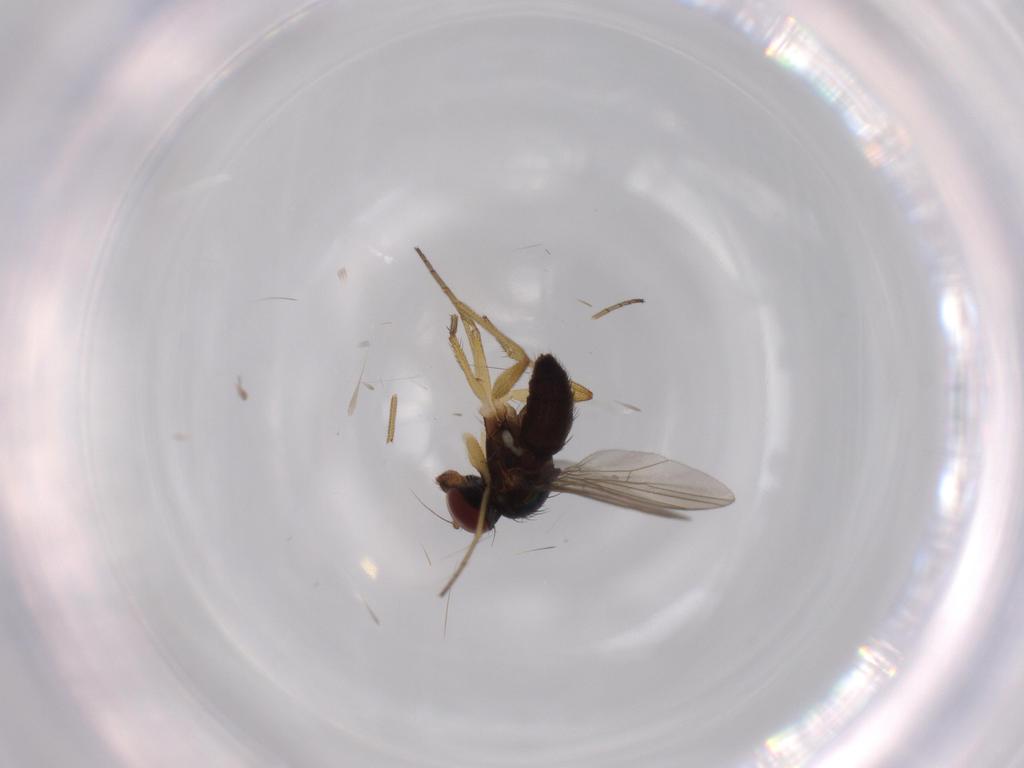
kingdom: Animalia
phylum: Arthropoda
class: Insecta
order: Diptera
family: Dolichopodidae
